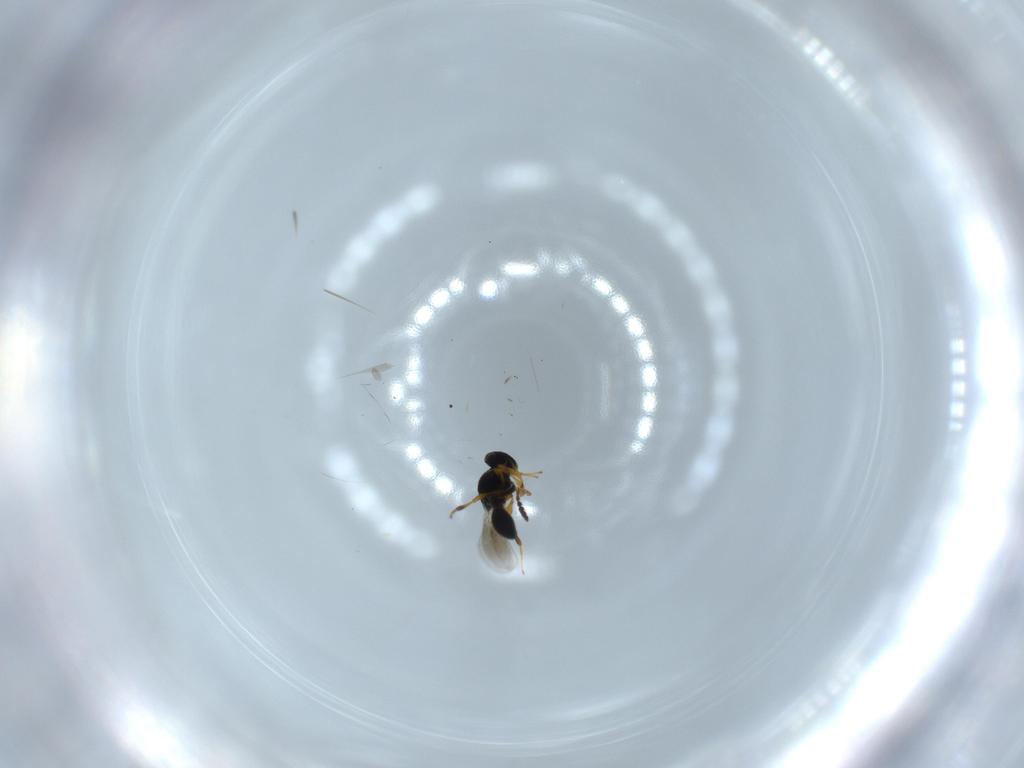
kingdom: Animalia
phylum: Arthropoda
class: Insecta
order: Hymenoptera
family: Platygastridae
